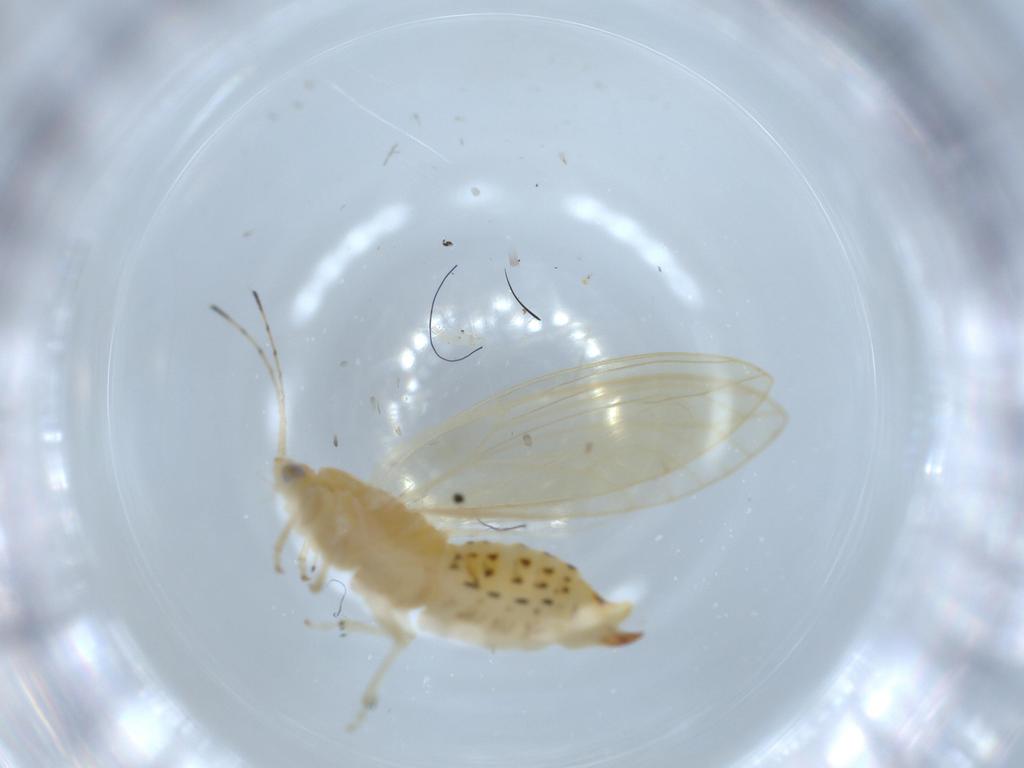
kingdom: Animalia
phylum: Arthropoda
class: Insecta
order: Hemiptera
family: Triozidae
